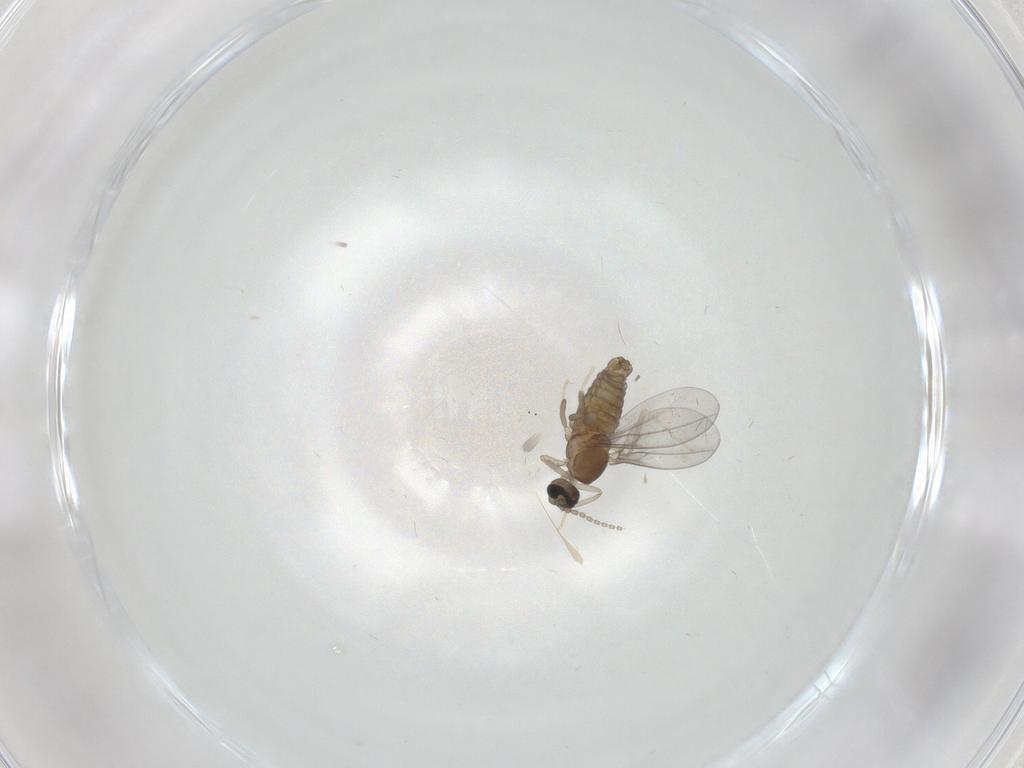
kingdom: Animalia
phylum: Arthropoda
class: Insecta
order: Diptera
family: Cecidomyiidae
